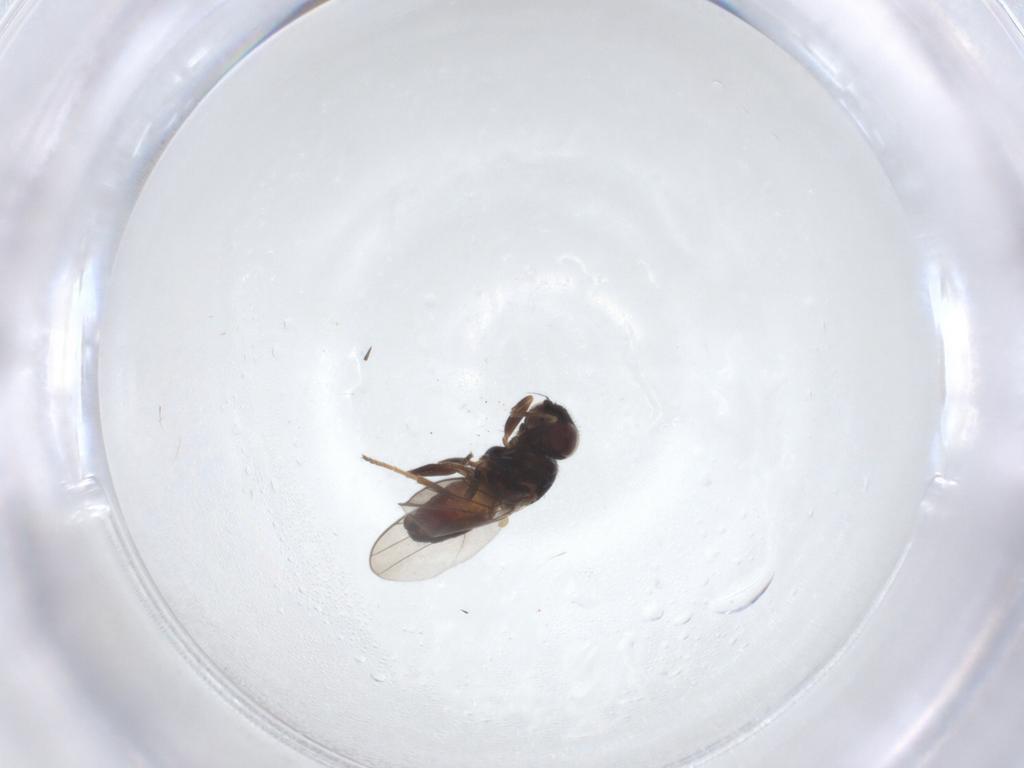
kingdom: Animalia
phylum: Arthropoda
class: Insecta
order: Diptera
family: Chloropidae
